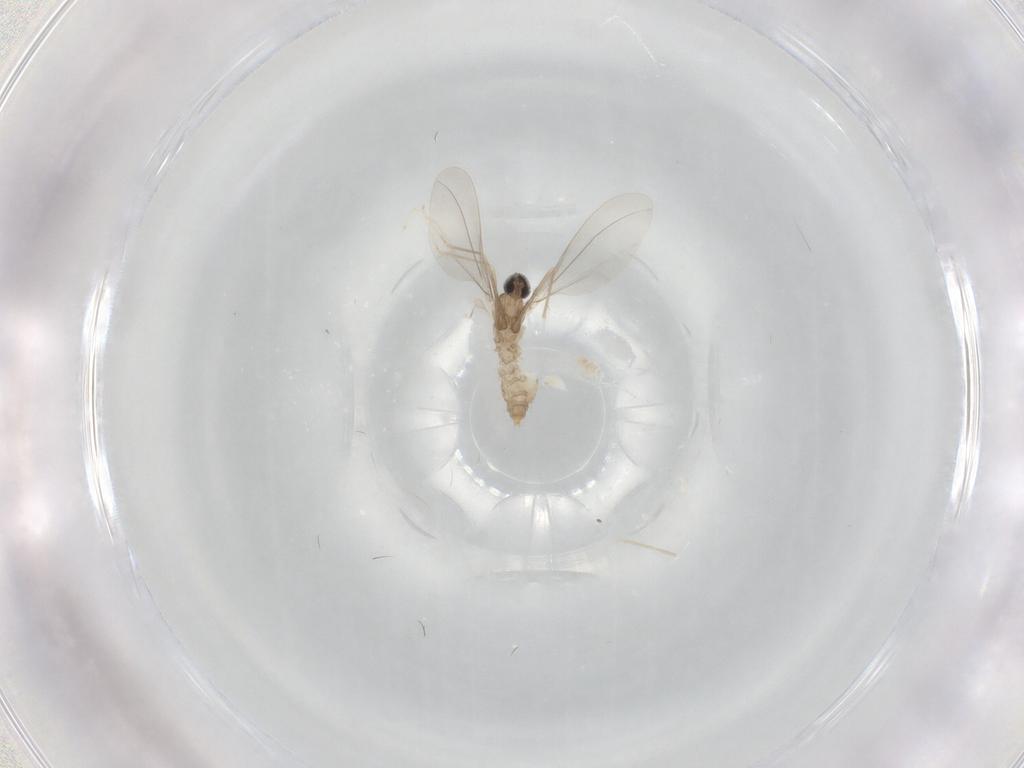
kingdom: Animalia
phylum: Arthropoda
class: Insecta
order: Diptera
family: Cecidomyiidae
